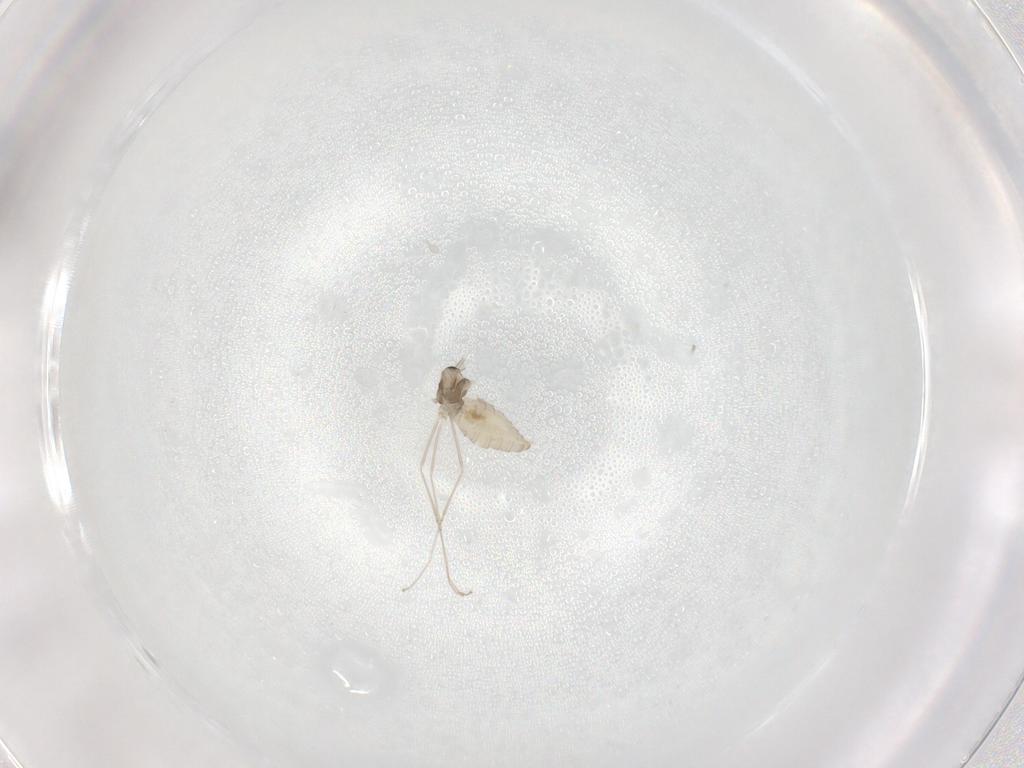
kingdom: Animalia
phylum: Arthropoda
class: Insecta
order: Diptera
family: Cecidomyiidae
